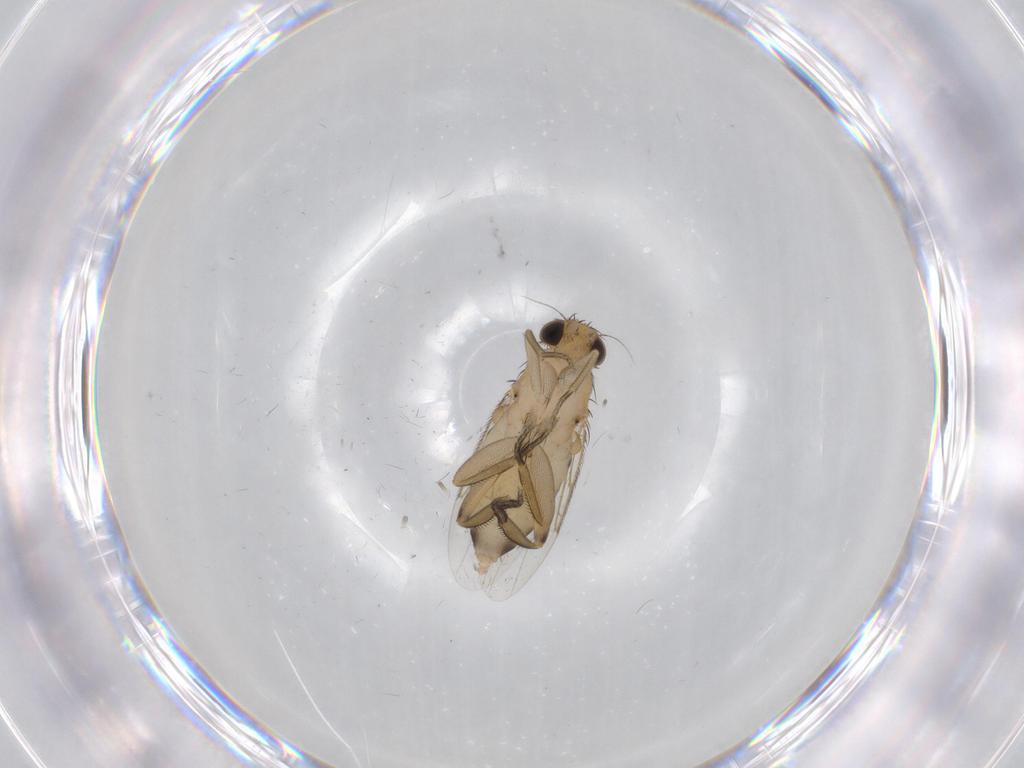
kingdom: Animalia
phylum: Arthropoda
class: Insecta
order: Diptera
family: Phoridae
